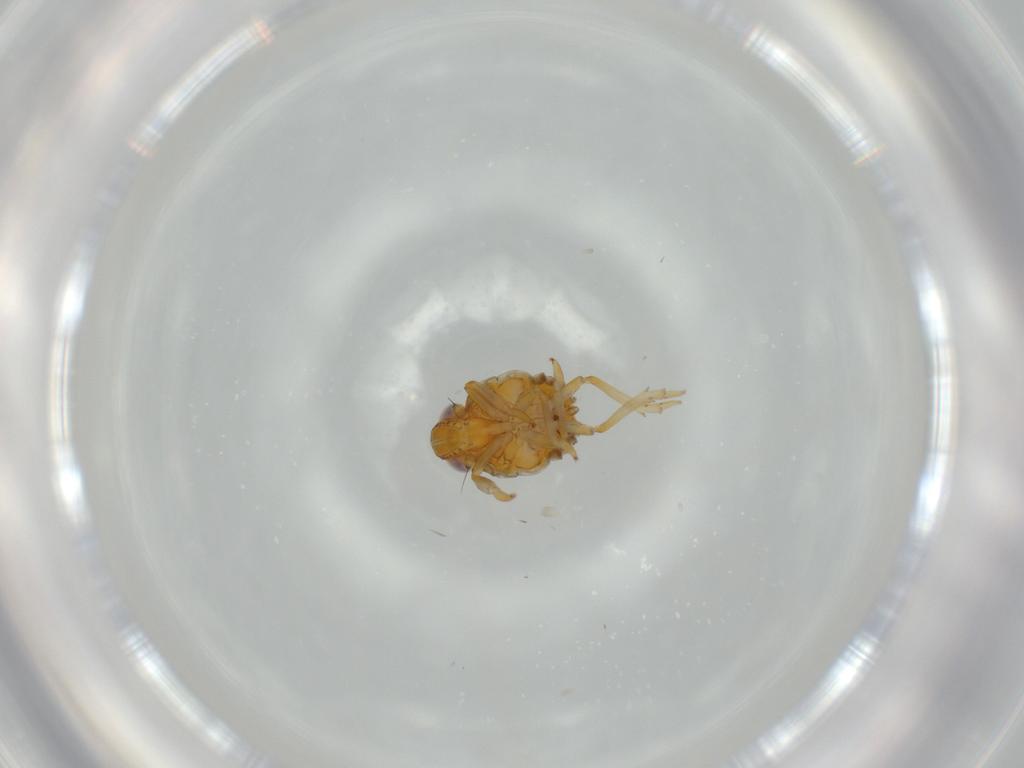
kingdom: Animalia
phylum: Arthropoda
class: Insecta
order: Hemiptera
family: Issidae
